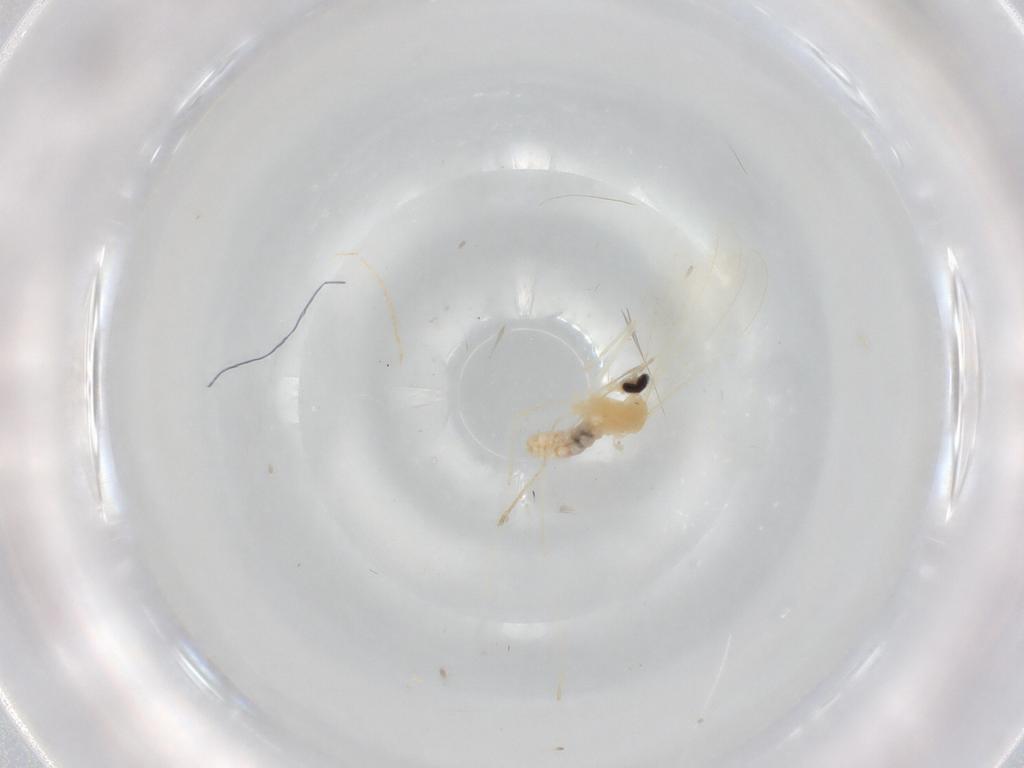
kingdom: Animalia
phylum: Arthropoda
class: Insecta
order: Diptera
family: Cecidomyiidae
